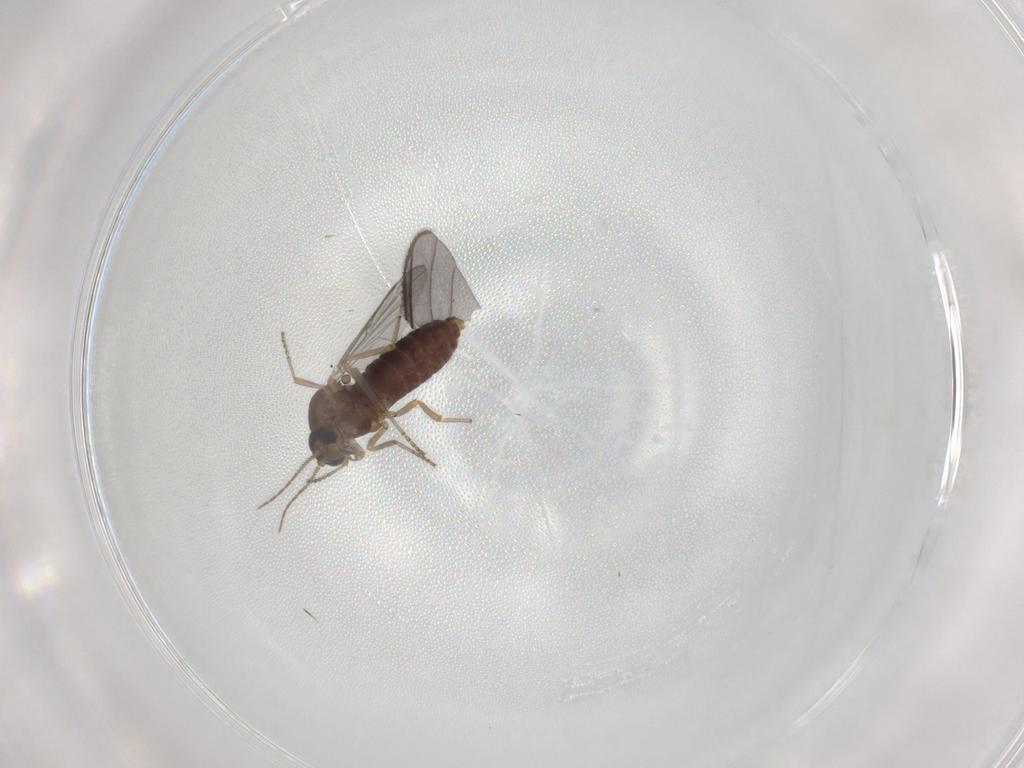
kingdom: Animalia
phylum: Arthropoda
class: Insecta
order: Diptera
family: Ceratopogonidae
